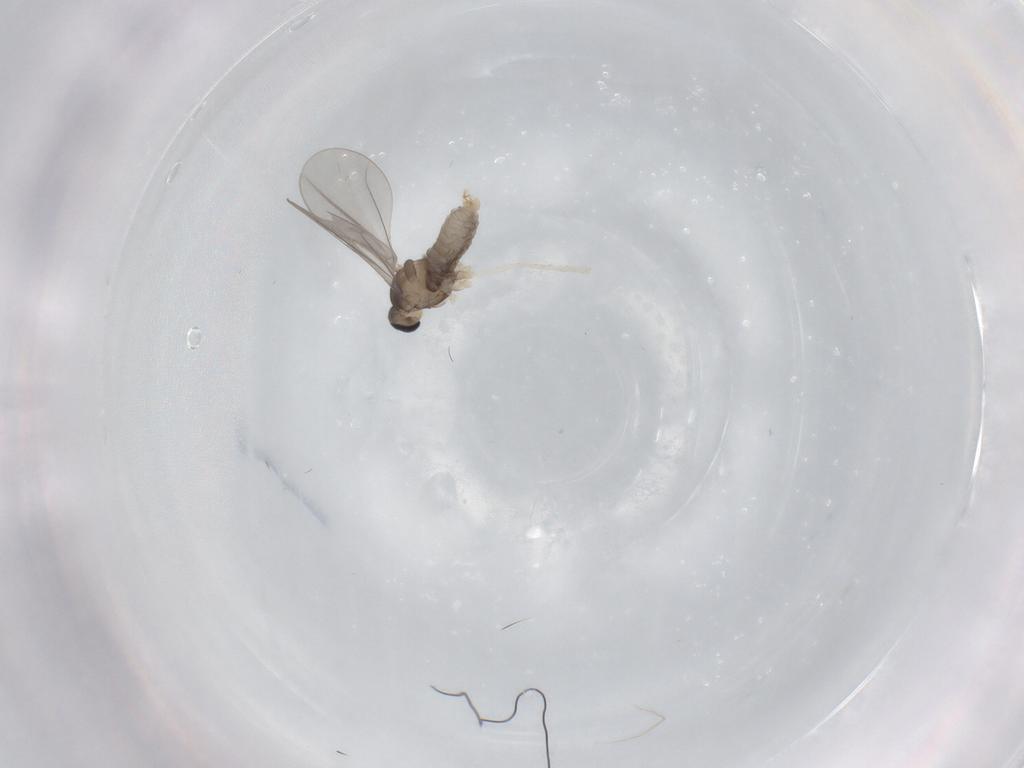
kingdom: Animalia
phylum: Arthropoda
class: Insecta
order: Diptera
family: Cecidomyiidae
